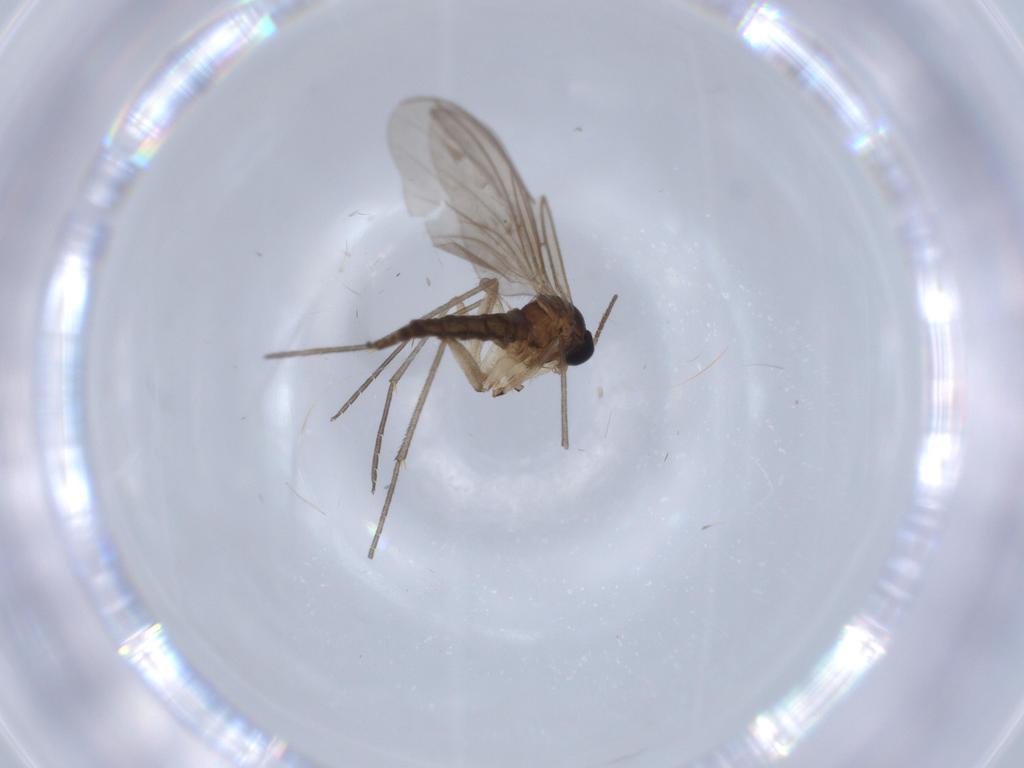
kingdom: Animalia
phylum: Arthropoda
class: Insecta
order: Diptera
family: Sciaridae
